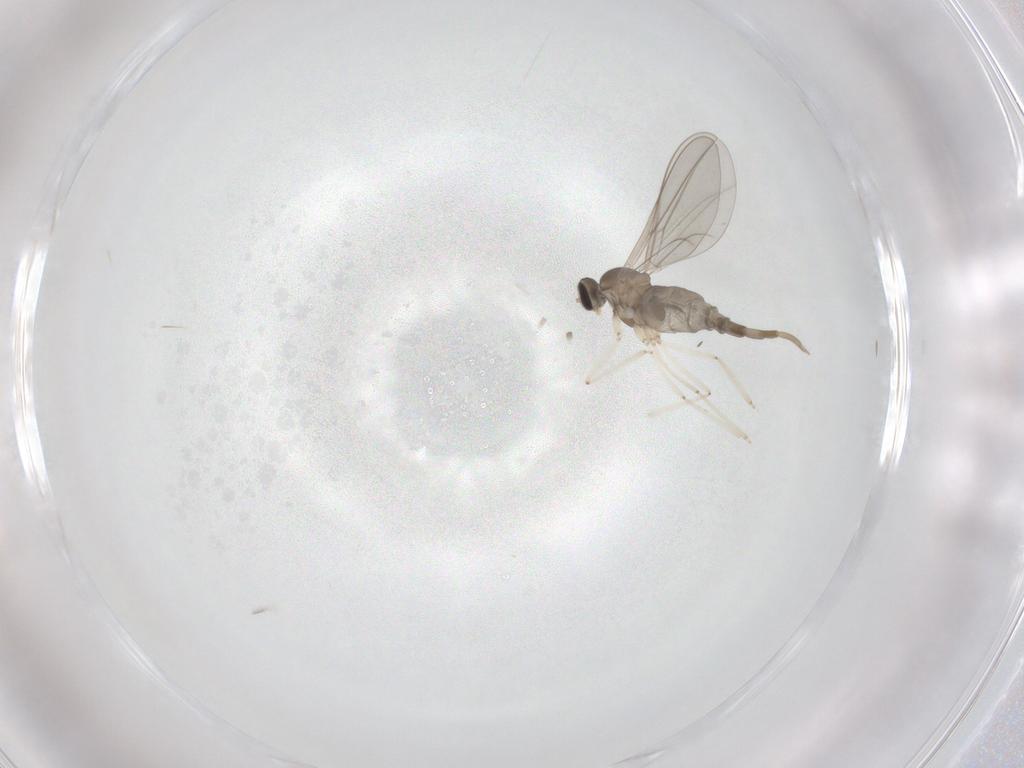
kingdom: Animalia
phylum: Arthropoda
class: Insecta
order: Diptera
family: Cecidomyiidae
